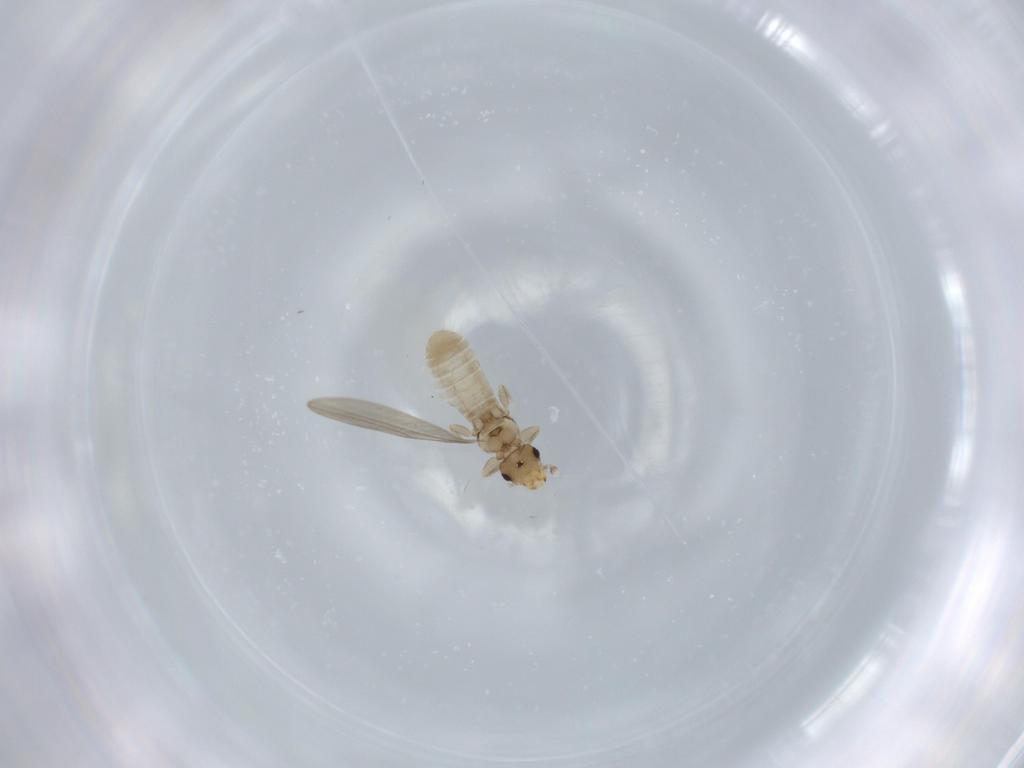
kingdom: Animalia
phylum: Arthropoda
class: Insecta
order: Psocodea
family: Liposcelididae
